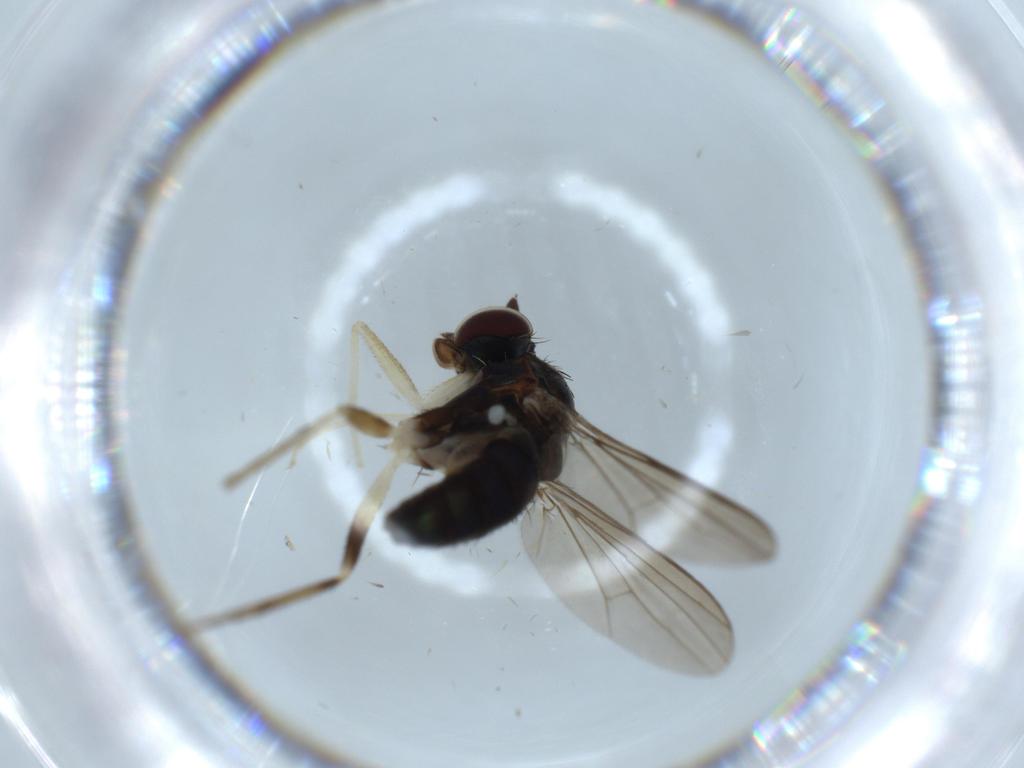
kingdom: Animalia
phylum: Arthropoda
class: Insecta
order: Diptera
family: Dolichopodidae
